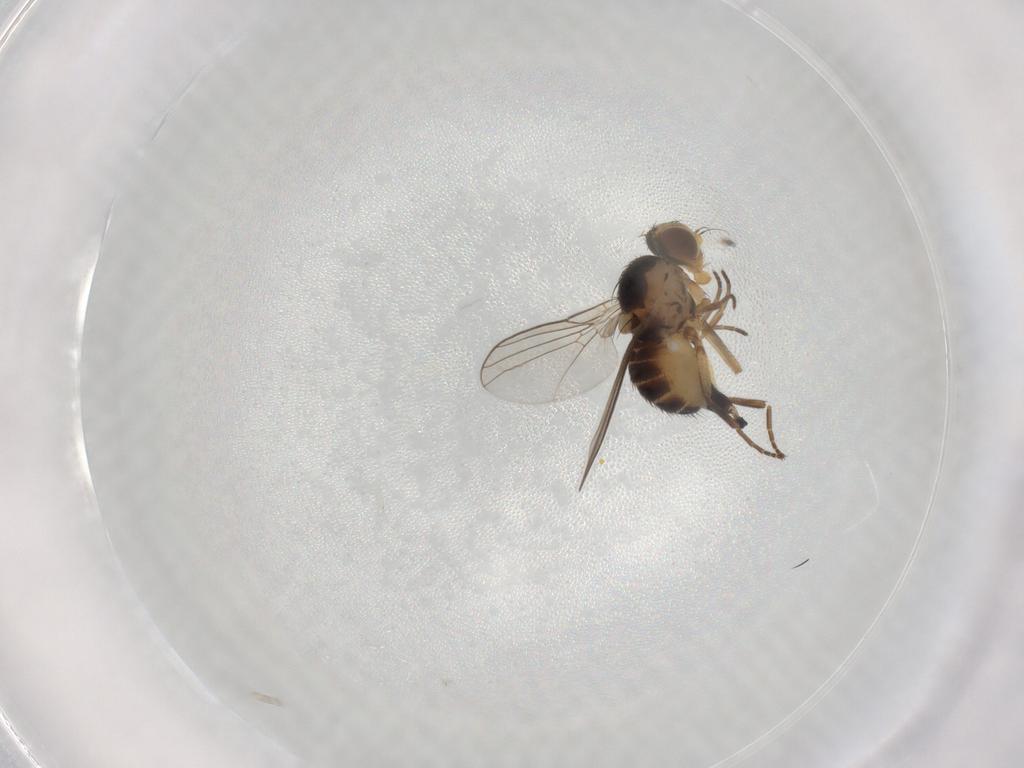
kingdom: Animalia
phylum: Arthropoda
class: Insecta
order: Diptera
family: Agromyzidae
